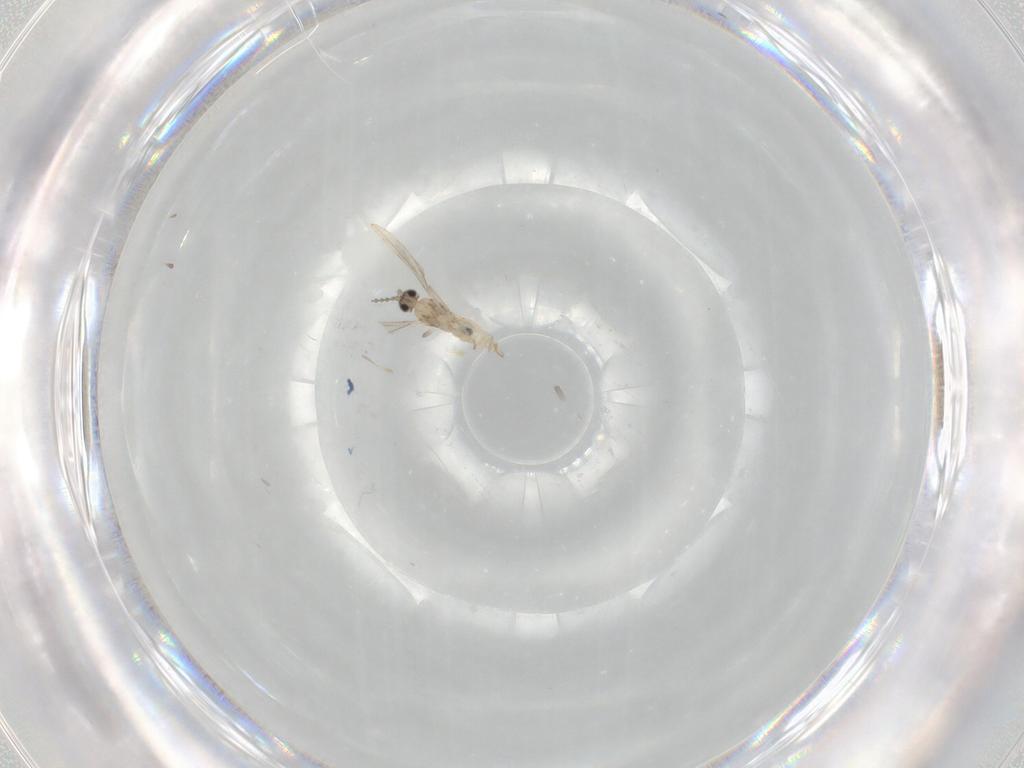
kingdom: Animalia
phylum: Arthropoda
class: Insecta
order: Diptera
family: Cecidomyiidae
